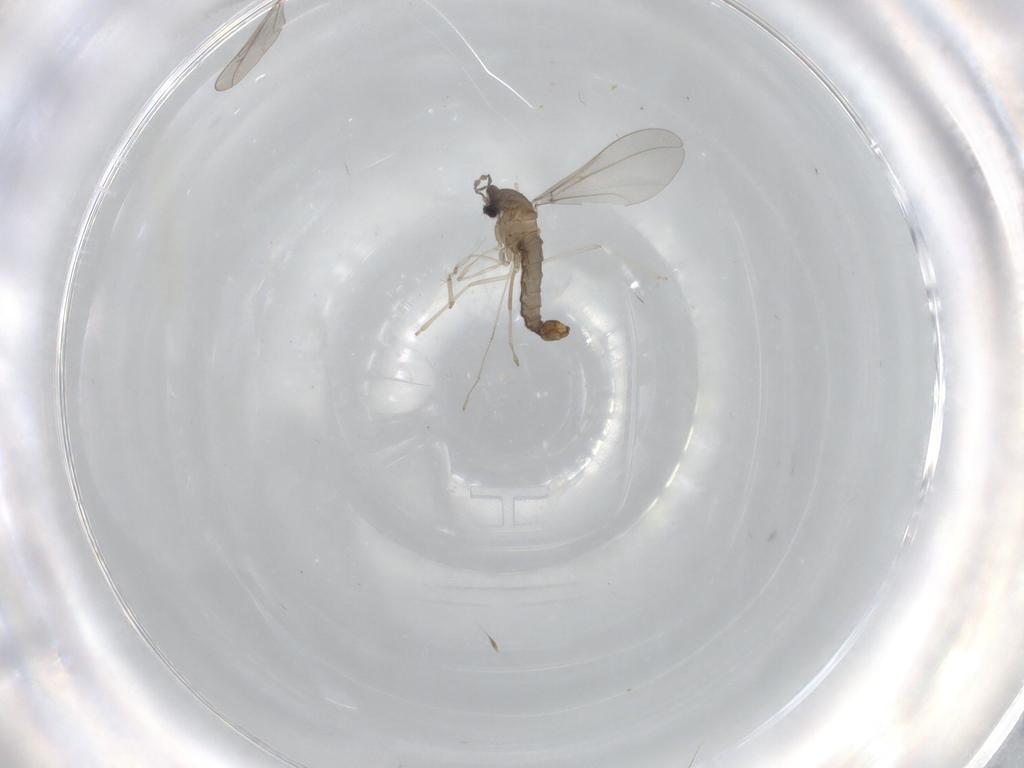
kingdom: Animalia
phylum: Arthropoda
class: Insecta
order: Diptera
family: Cecidomyiidae
